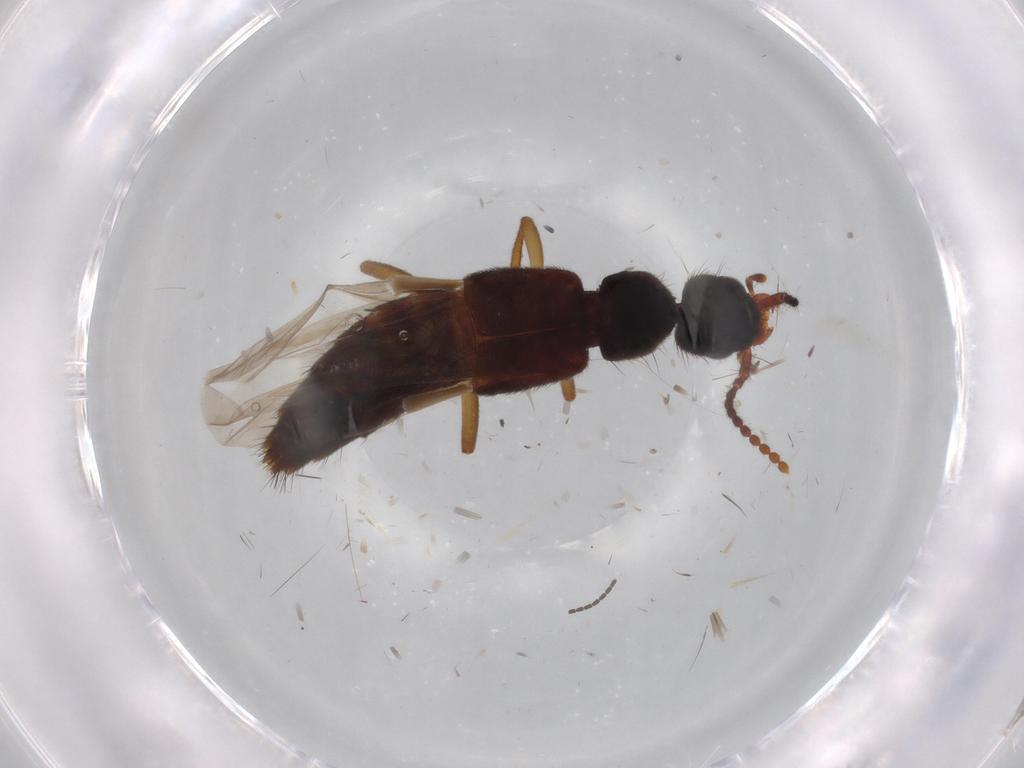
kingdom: Animalia
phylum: Arthropoda
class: Insecta
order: Coleoptera
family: Staphylinidae
